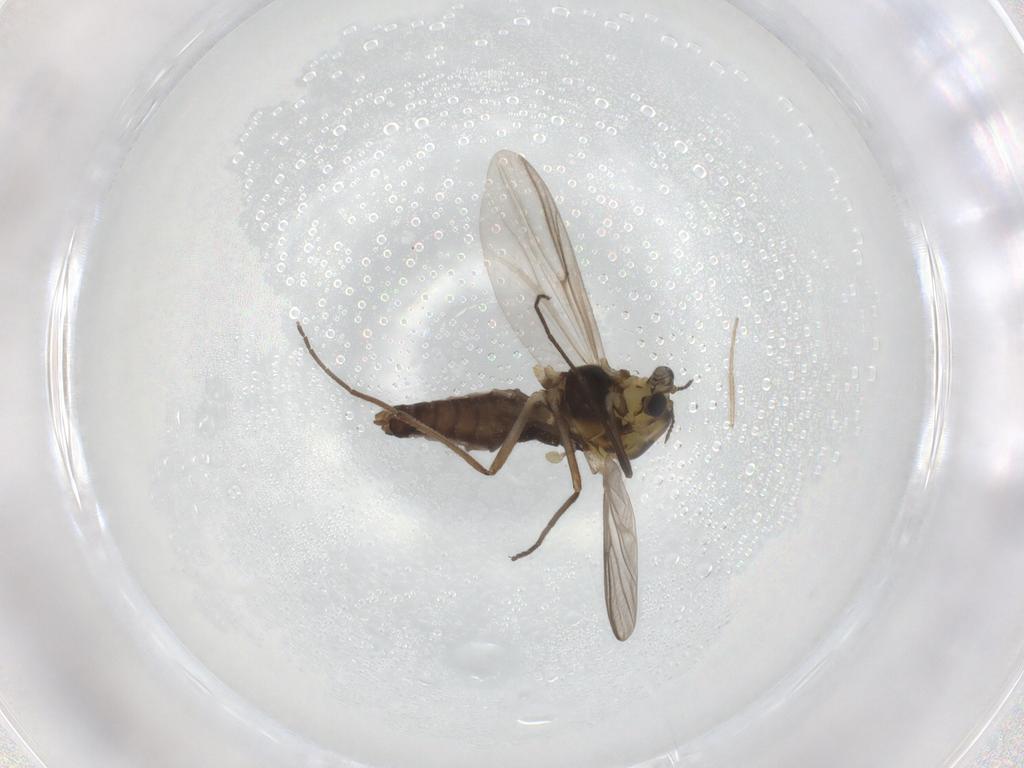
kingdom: Animalia
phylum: Arthropoda
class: Insecta
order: Diptera
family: Chironomidae
